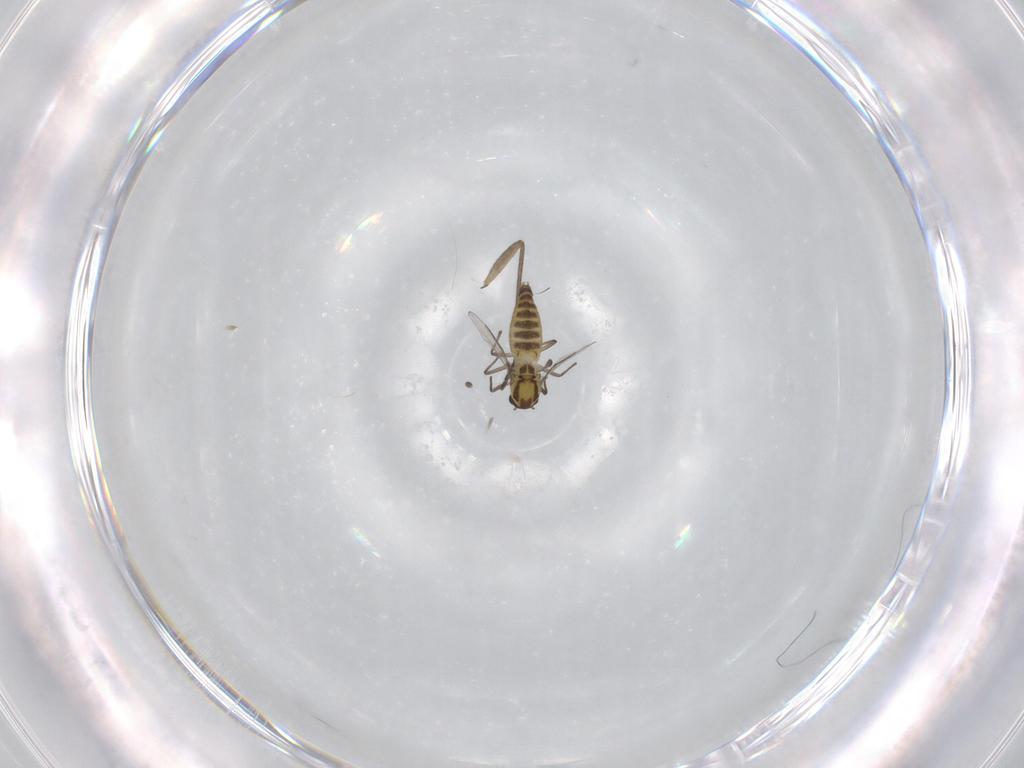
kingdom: Animalia
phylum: Arthropoda
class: Insecta
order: Diptera
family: Chironomidae
